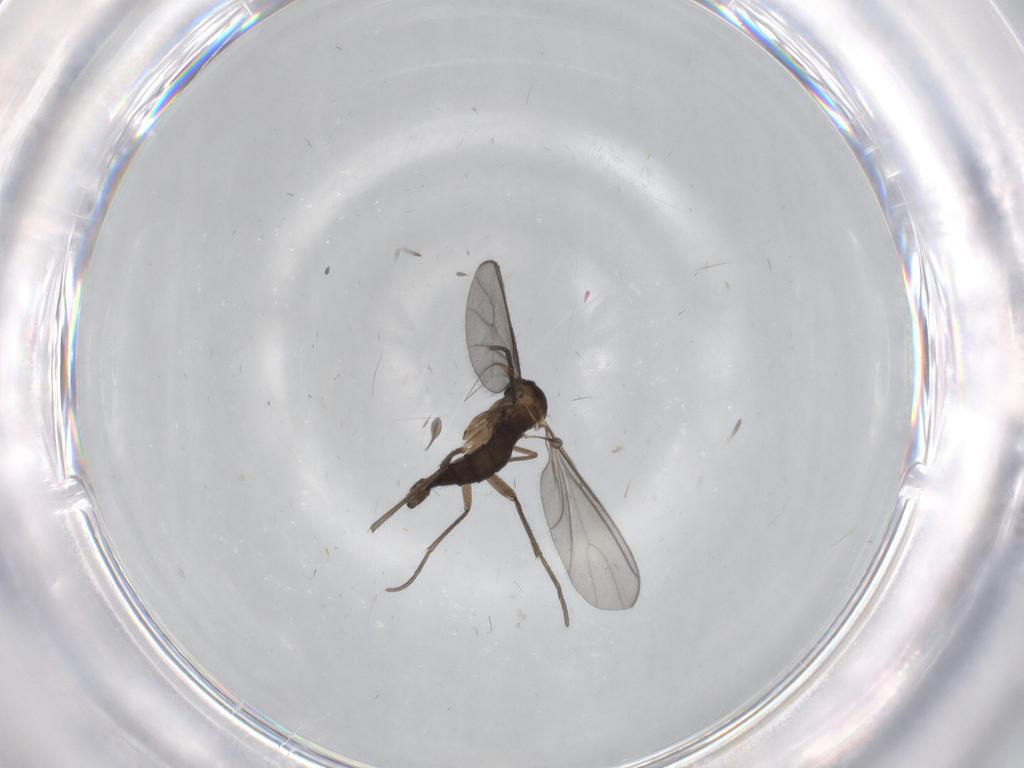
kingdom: Animalia
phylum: Arthropoda
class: Insecta
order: Diptera
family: Sciaridae
